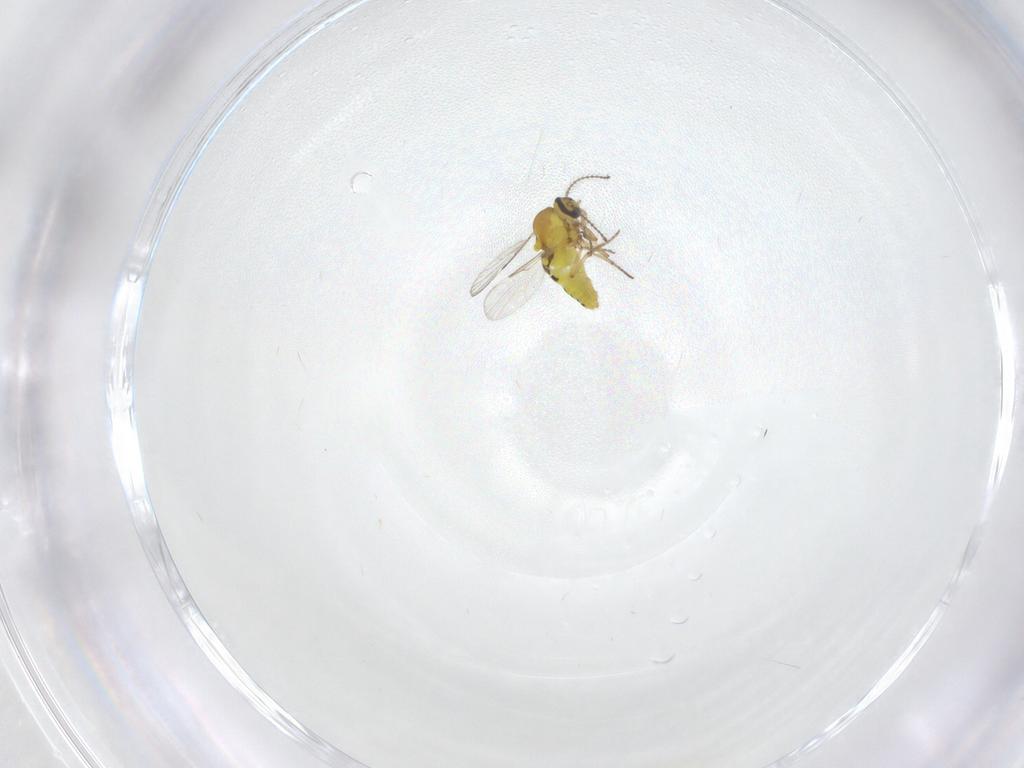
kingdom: Animalia
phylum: Arthropoda
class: Insecta
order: Diptera
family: Ceratopogonidae
